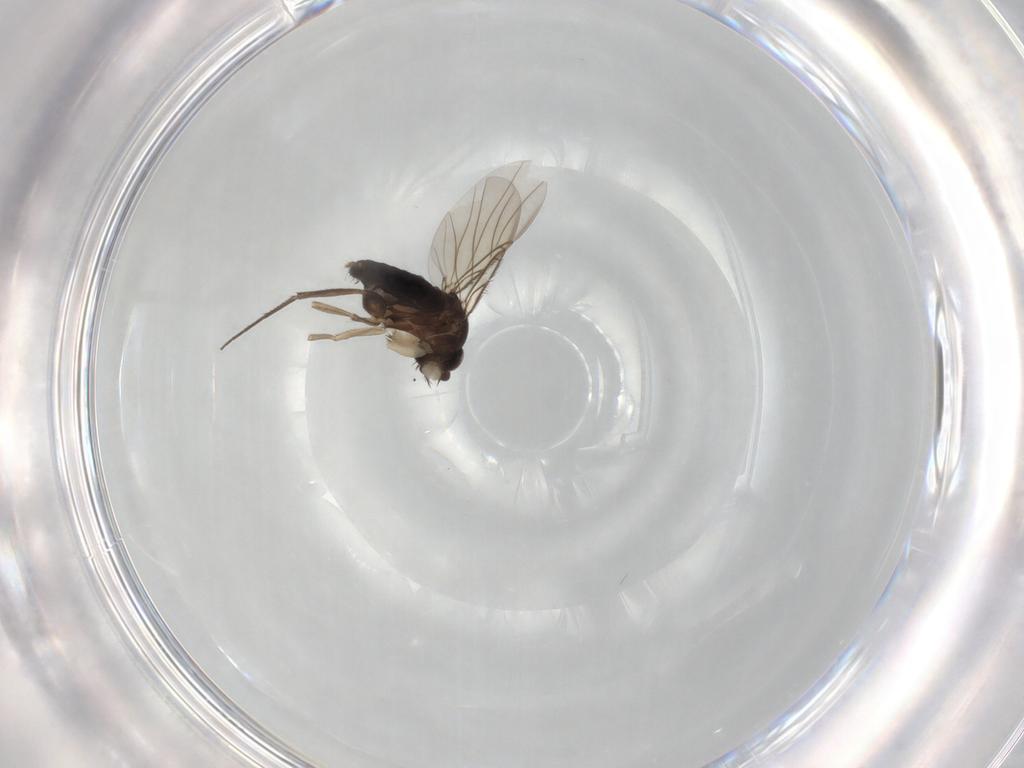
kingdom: Animalia
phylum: Arthropoda
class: Insecta
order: Diptera
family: Phoridae
